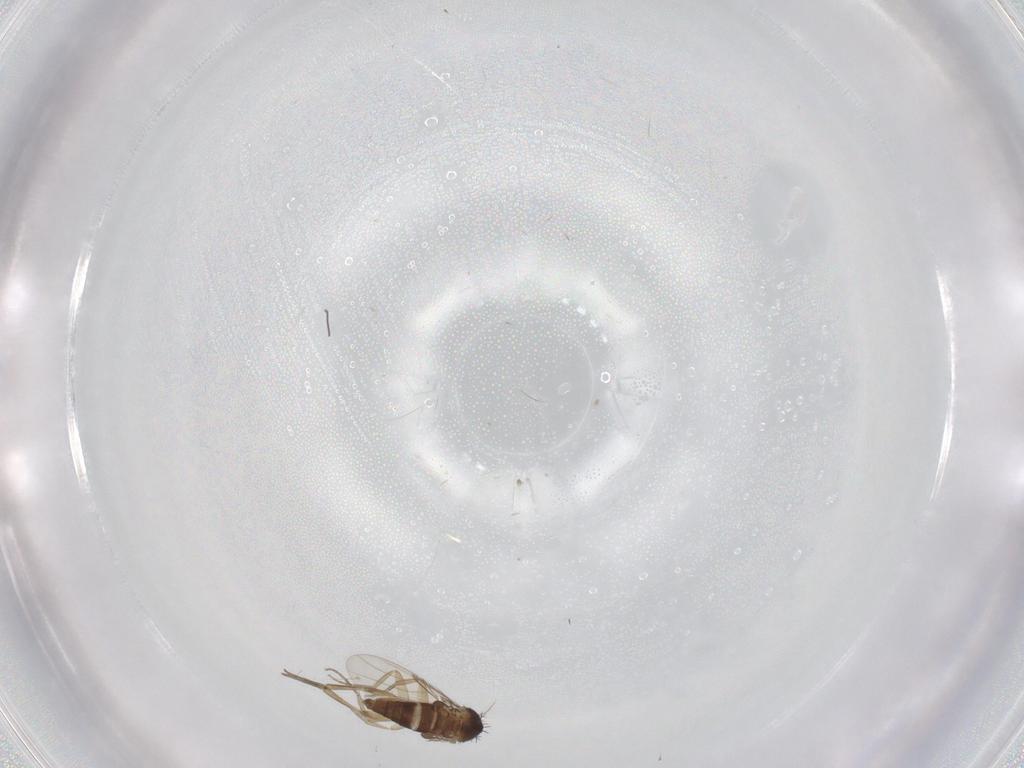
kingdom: Animalia
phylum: Arthropoda
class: Insecta
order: Diptera
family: Phoridae
